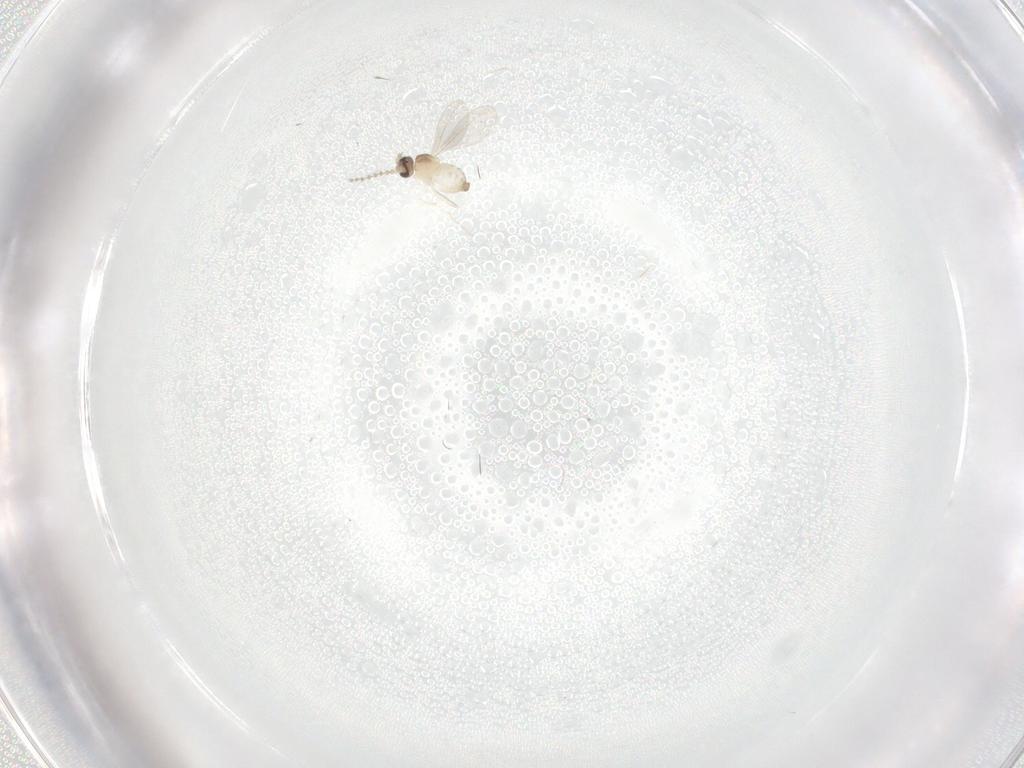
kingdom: Animalia
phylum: Arthropoda
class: Insecta
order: Diptera
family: Cecidomyiidae
